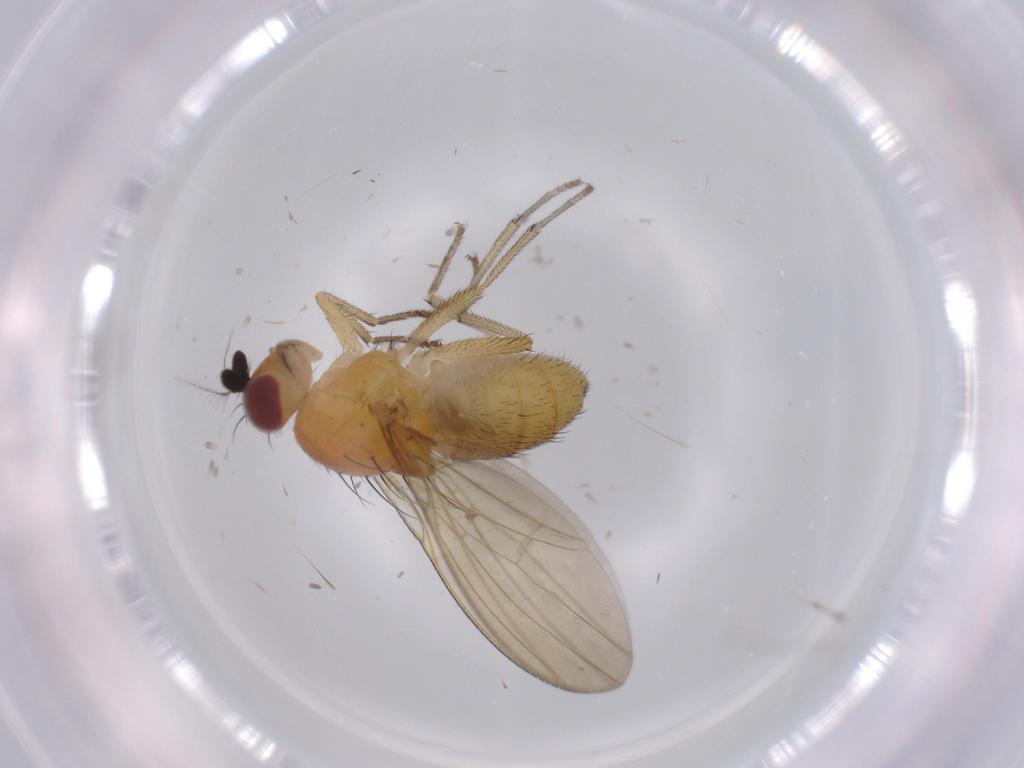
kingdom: Animalia
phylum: Arthropoda
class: Insecta
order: Diptera
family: Lauxaniidae
